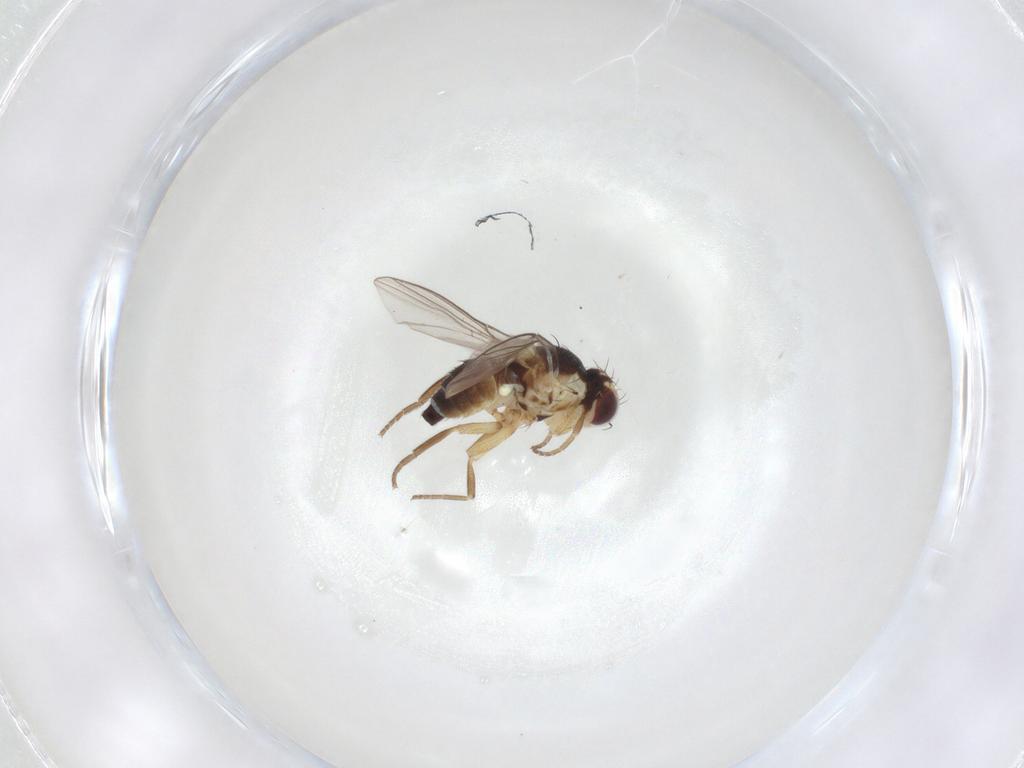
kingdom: Animalia
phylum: Arthropoda
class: Insecta
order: Diptera
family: Agromyzidae
